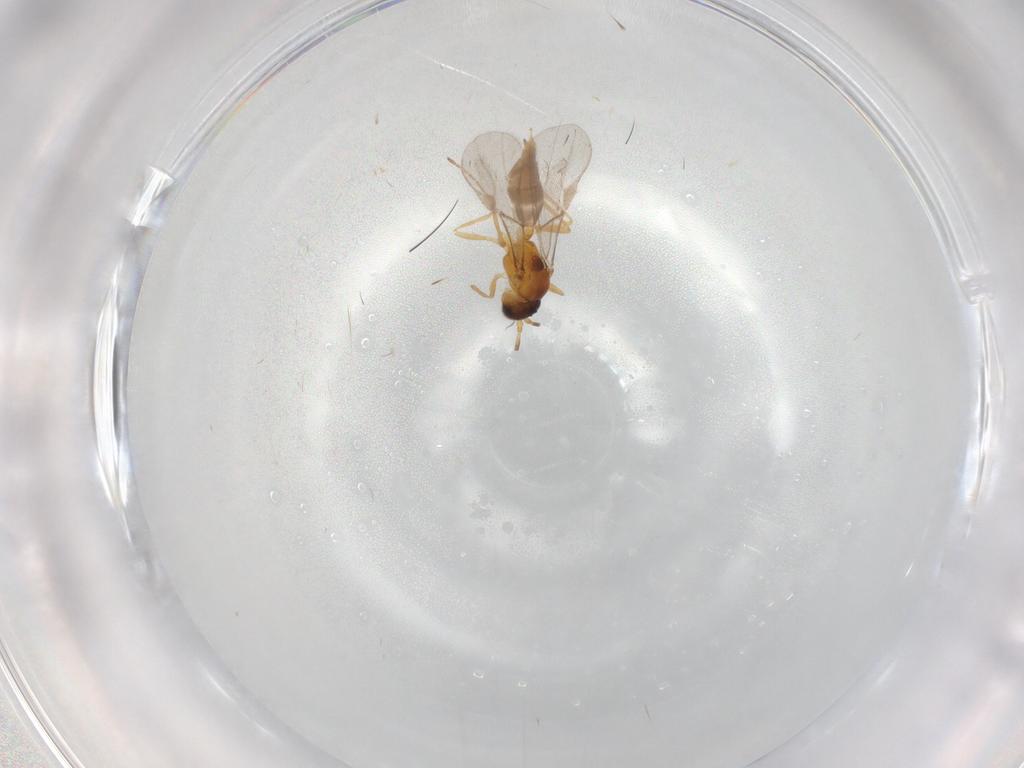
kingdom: Animalia
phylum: Arthropoda
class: Insecta
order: Hymenoptera
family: Braconidae
